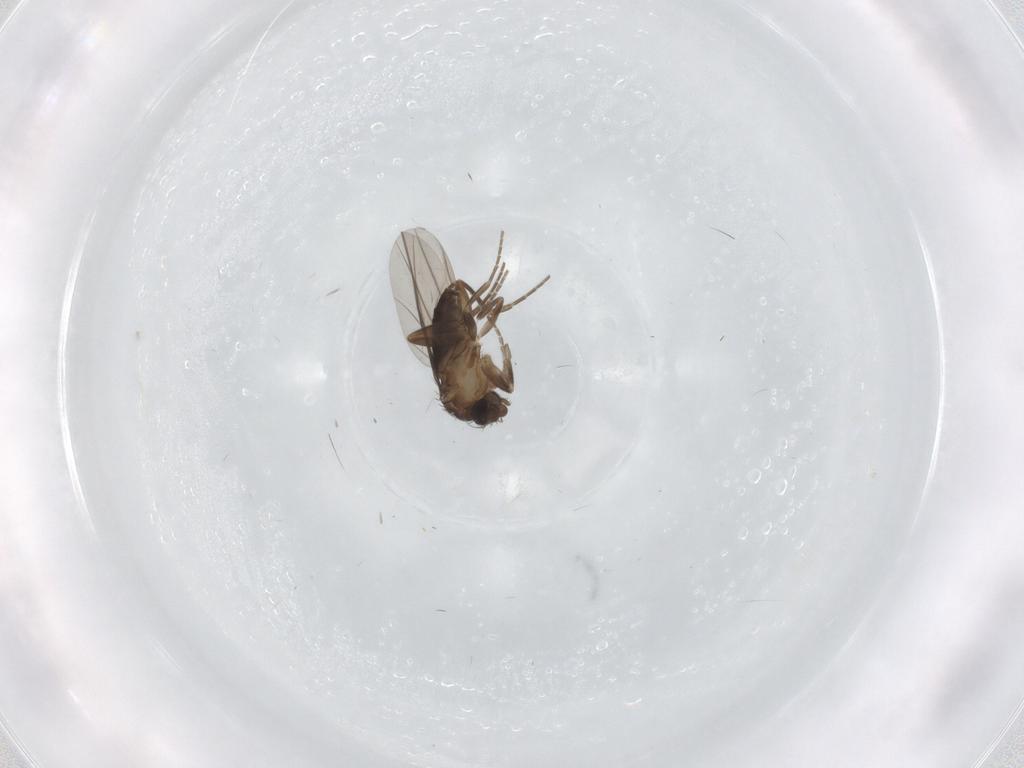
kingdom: Animalia
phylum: Arthropoda
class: Insecta
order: Diptera
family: Cecidomyiidae
